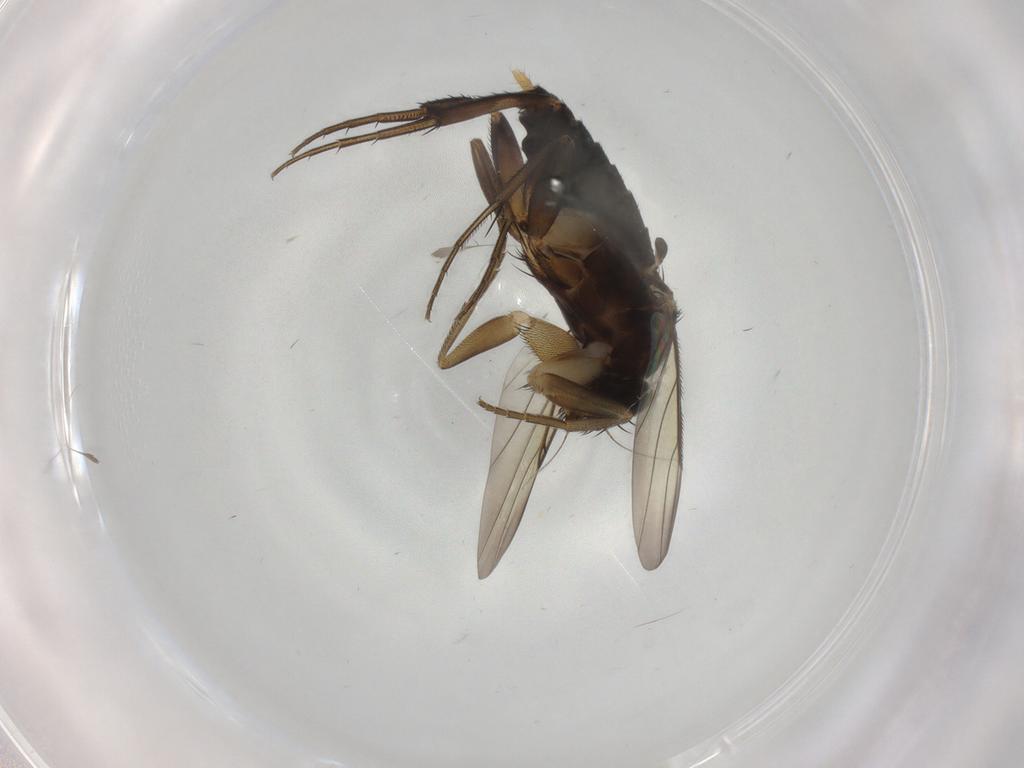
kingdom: Animalia
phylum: Arthropoda
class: Insecta
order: Diptera
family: Phoridae
